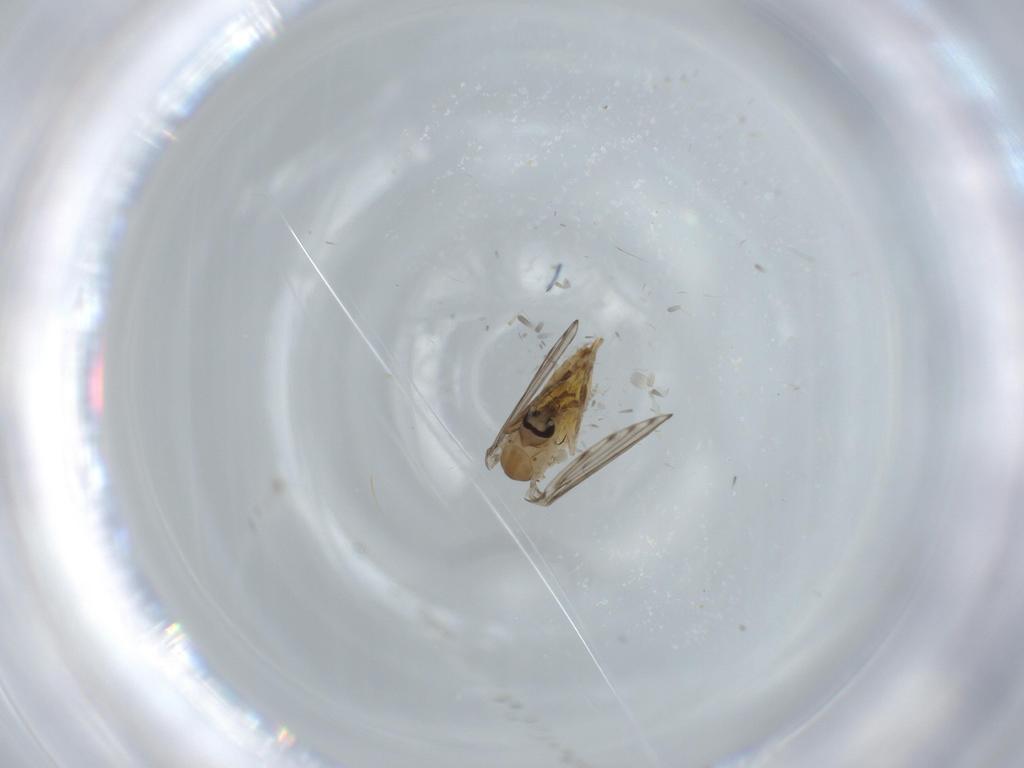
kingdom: Animalia
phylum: Arthropoda
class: Insecta
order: Diptera
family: Psychodidae
